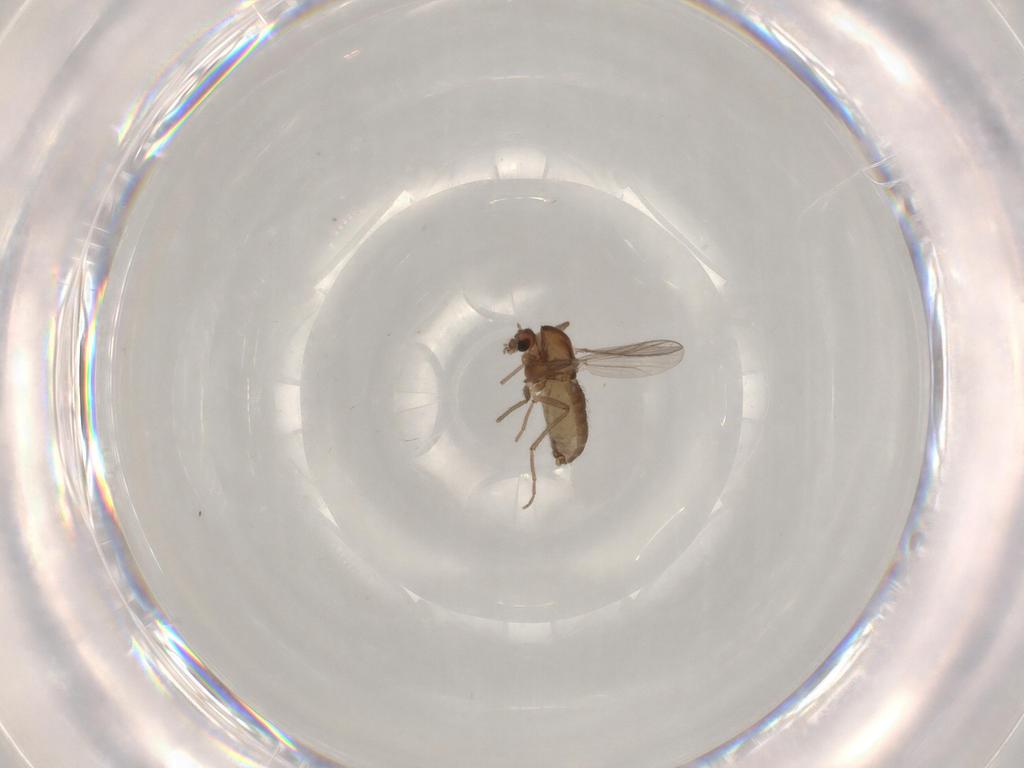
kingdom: Animalia
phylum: Arthropoda
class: Insecta
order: Diptera
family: Chironomidae
